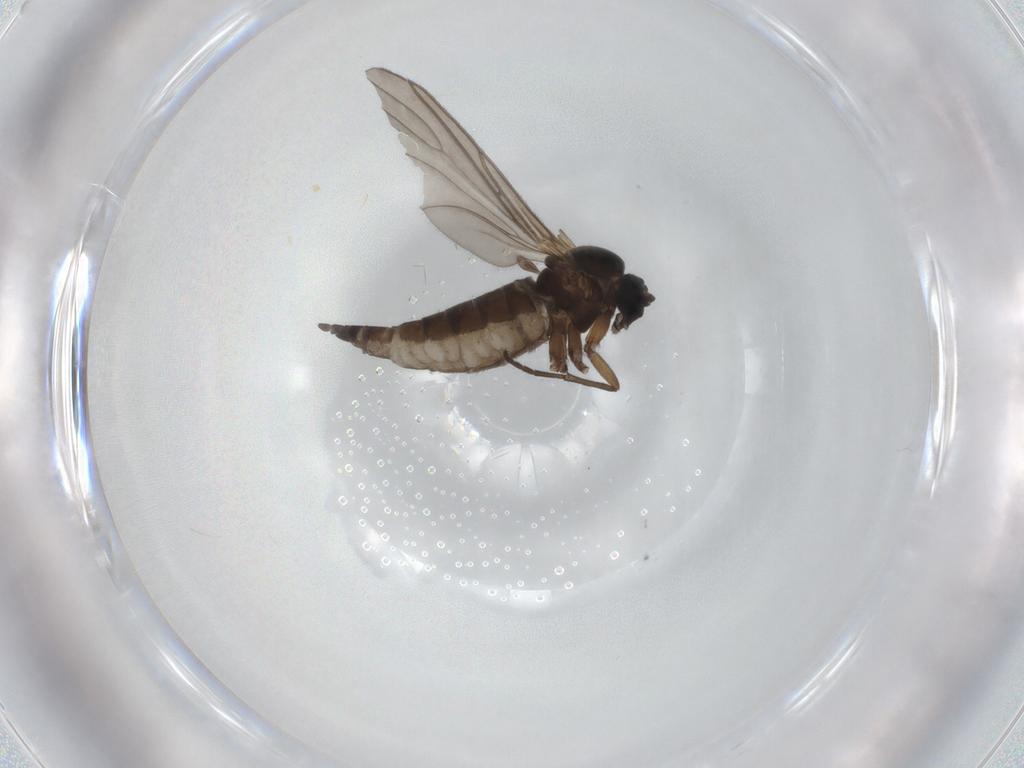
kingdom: Animalia
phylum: Arthropoda
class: Insecta
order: Diptera
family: Sciaridae
